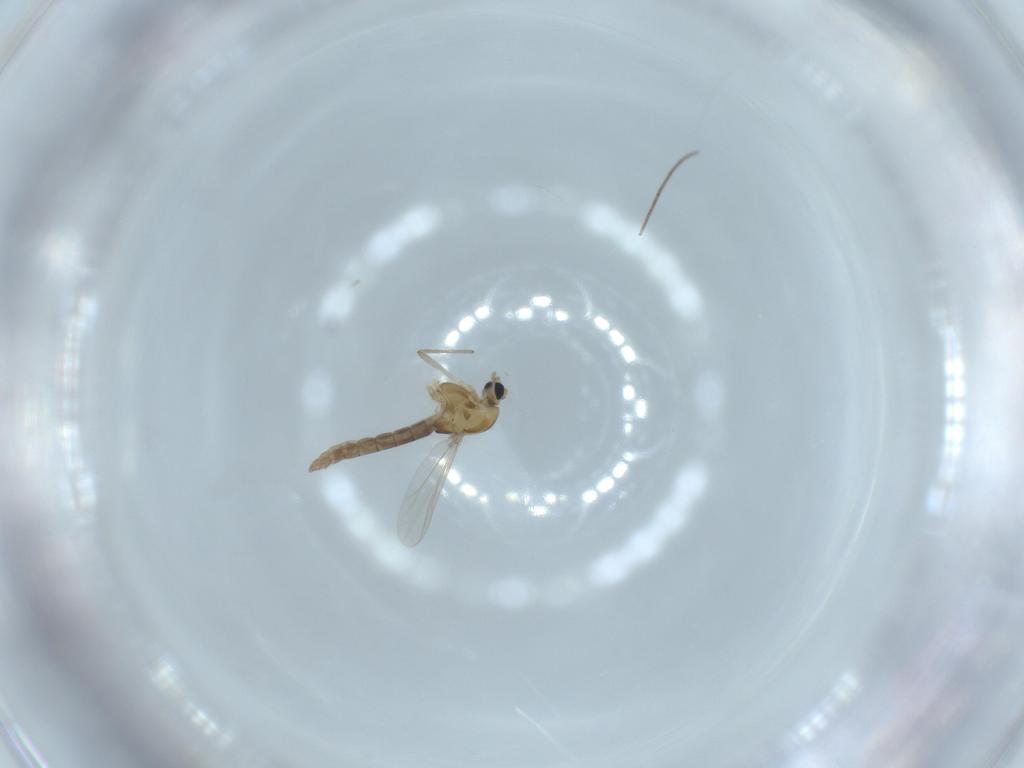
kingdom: Animalia
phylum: Arthropoda
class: Insecta
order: Diptera
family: Chironomidae
